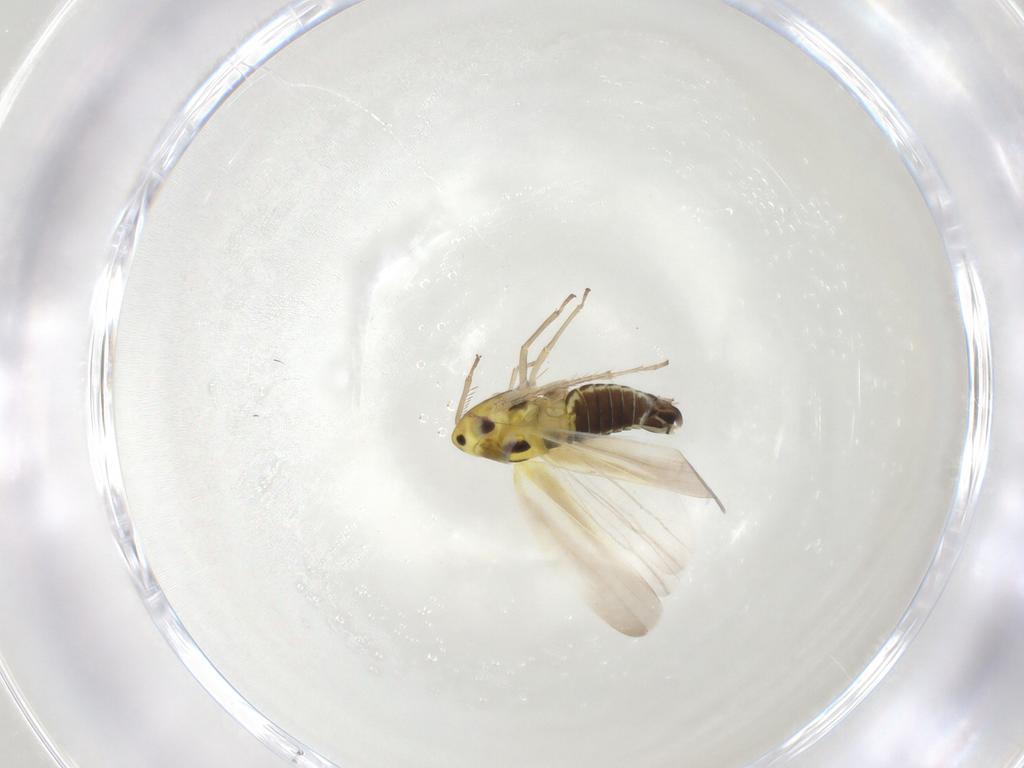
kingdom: Animalia
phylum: Arthropoda
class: Insecta
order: Hemiptera
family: Cicadellidae
